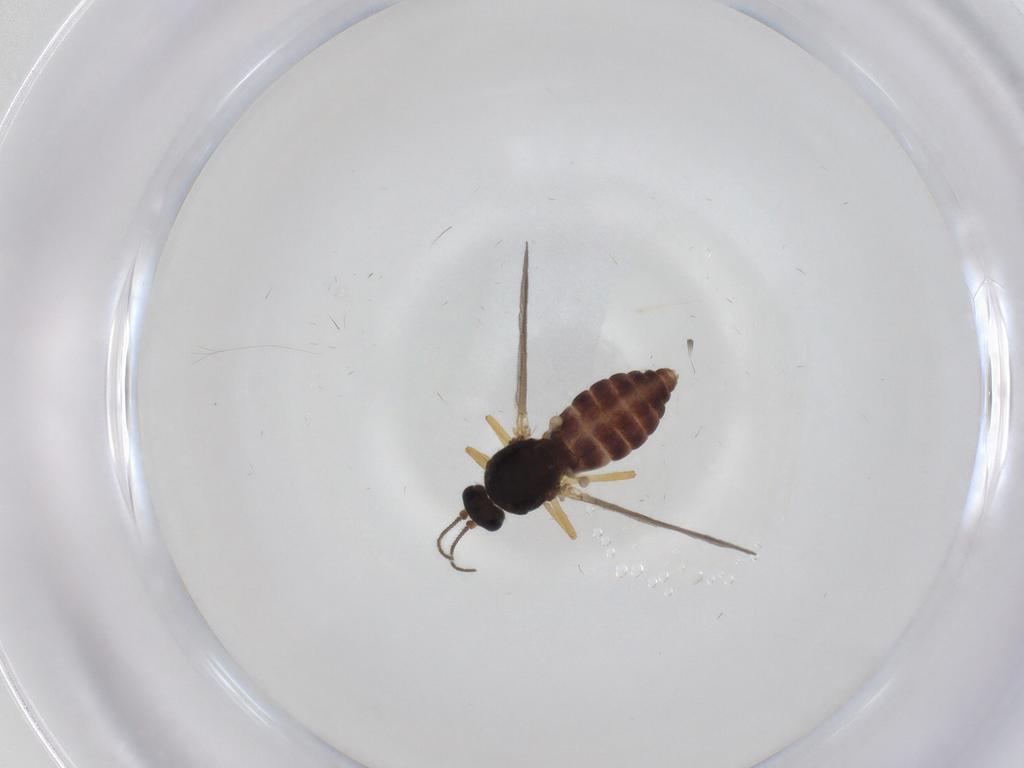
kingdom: Animalia
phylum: Arthropoda
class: Insecta
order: Diptera
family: Ceratopogonidae
